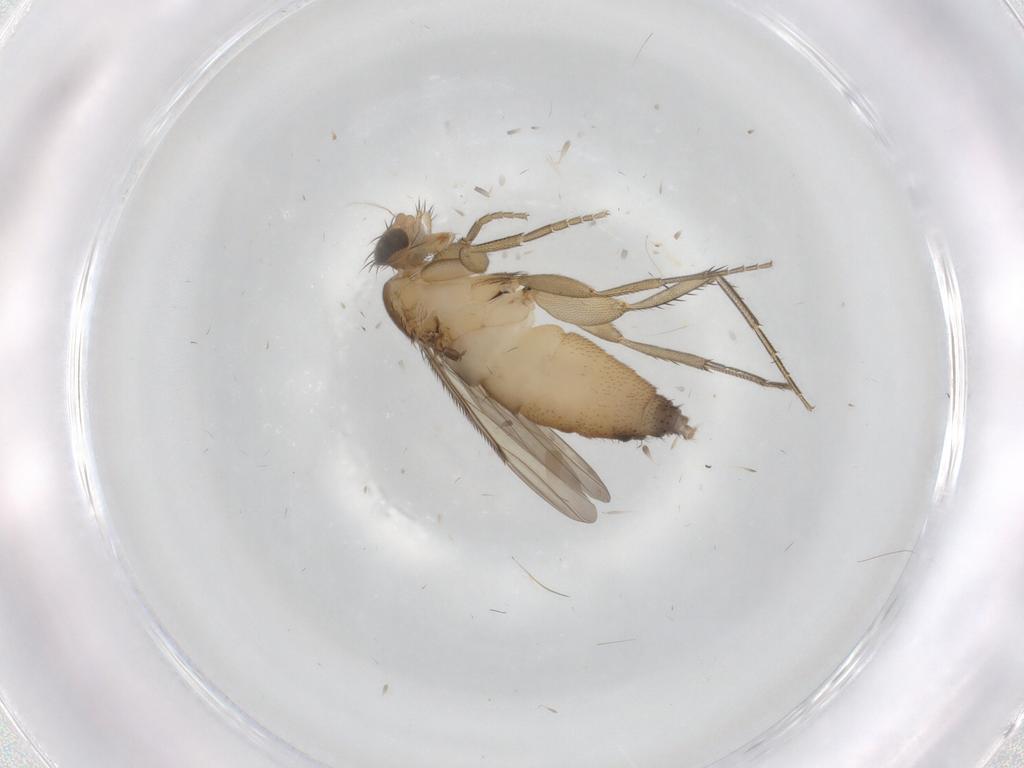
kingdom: Animalia
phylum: Arthropoda
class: Insecta
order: Diptera
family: Phoridae
